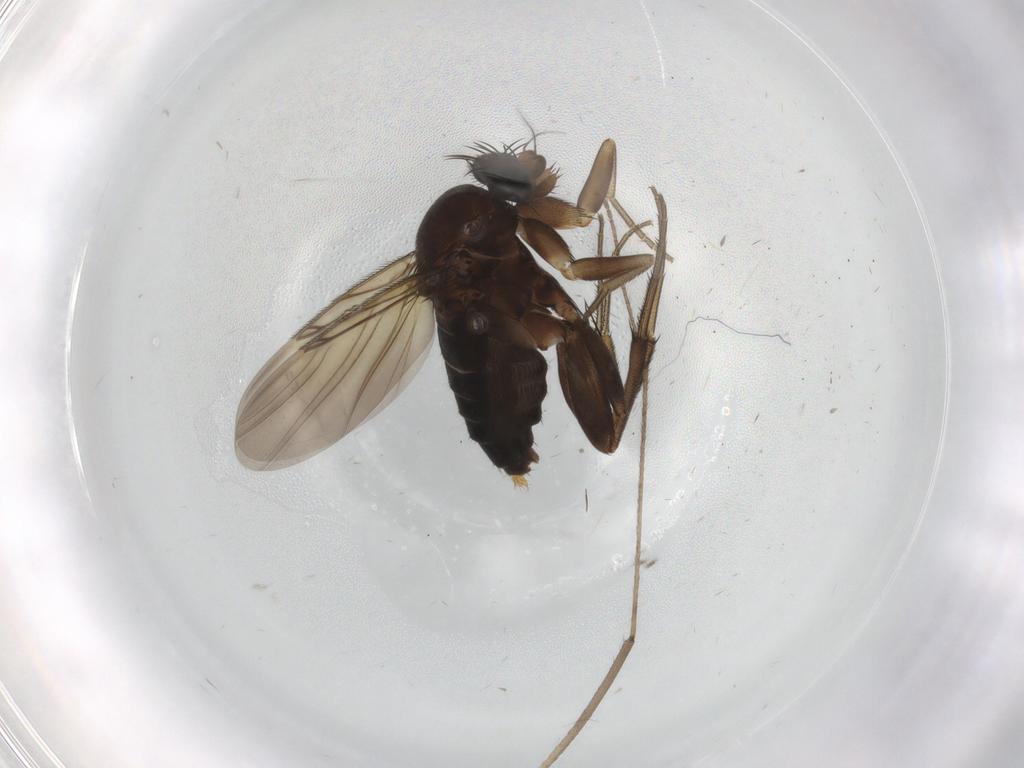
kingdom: Animalia
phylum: Arthropoda
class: Insecta
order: Diptera
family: Phoridae
